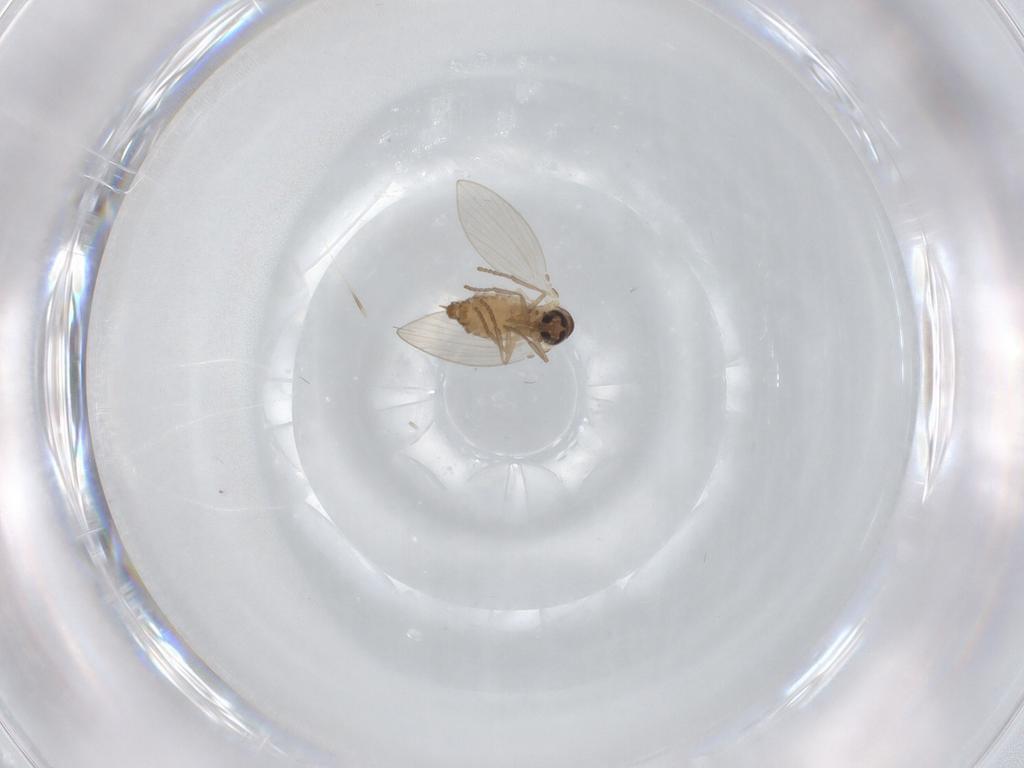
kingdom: Animalia
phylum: Arthropoda
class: Insecta
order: Diptera
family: Psychodidae
